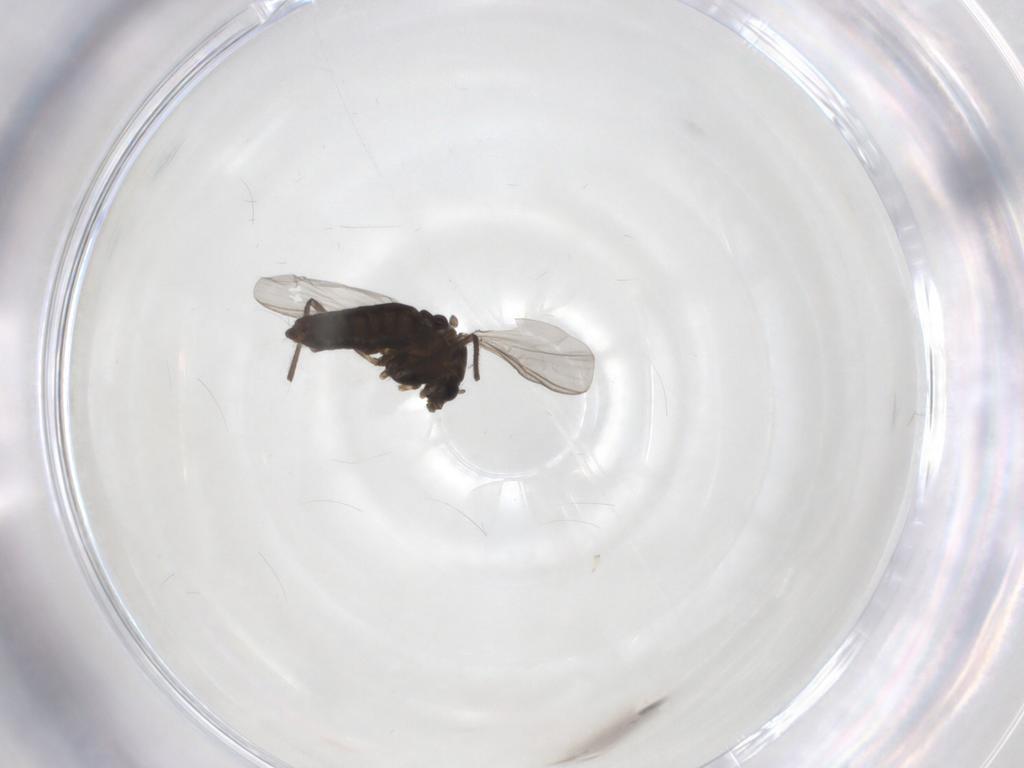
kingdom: Animalia
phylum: Arthropoda
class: Insecta
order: Diptera
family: Chironomidae
